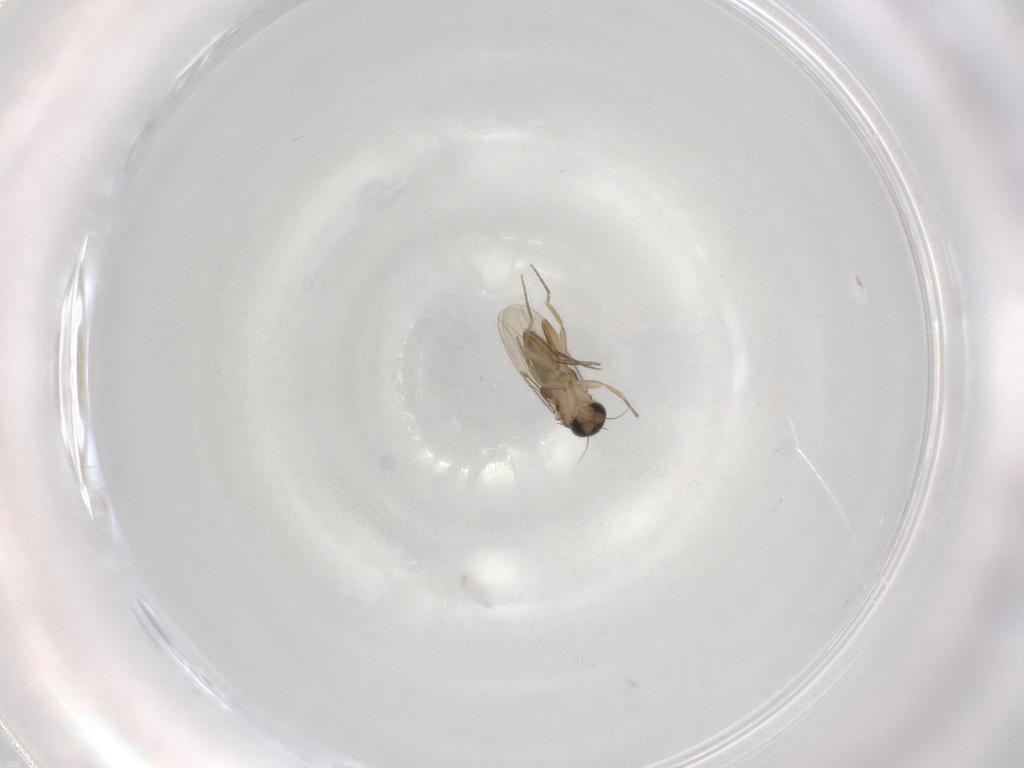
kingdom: Animalia
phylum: Arthropoda
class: Insecta
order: Diptera
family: Phoridae
